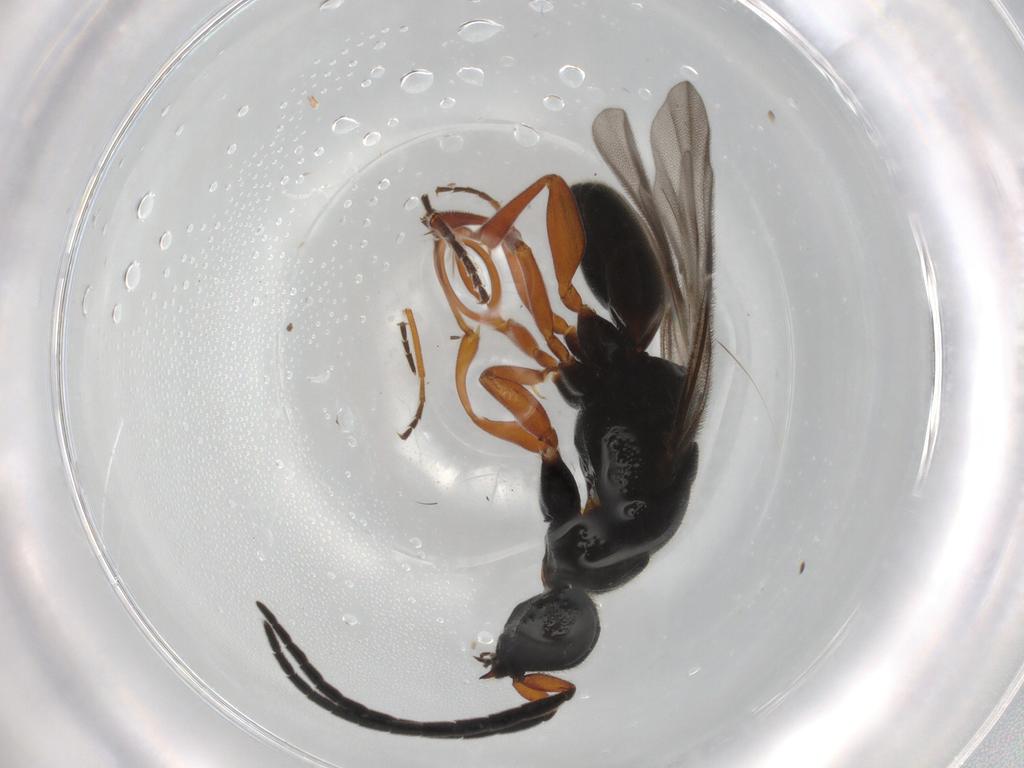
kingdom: Animalia
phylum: Arthropoda
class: Insecta
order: Hymenoptera
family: Chrysididae
